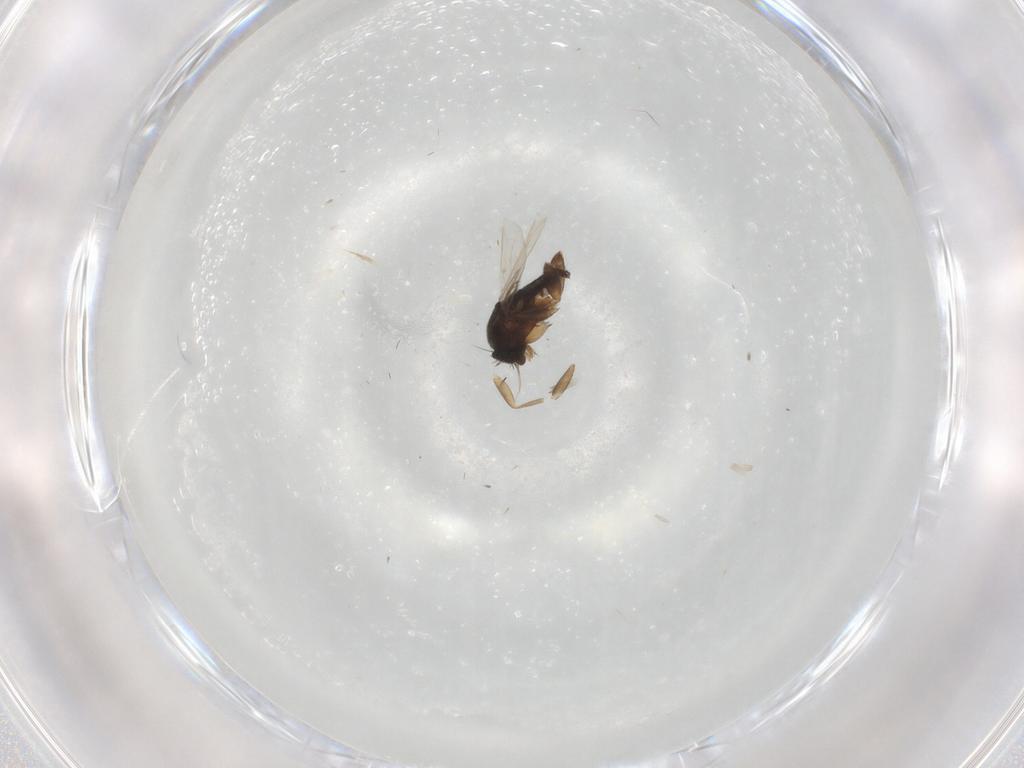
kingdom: Animalia
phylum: Arthropoda
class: Insecta
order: Diptera
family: Phoridae
